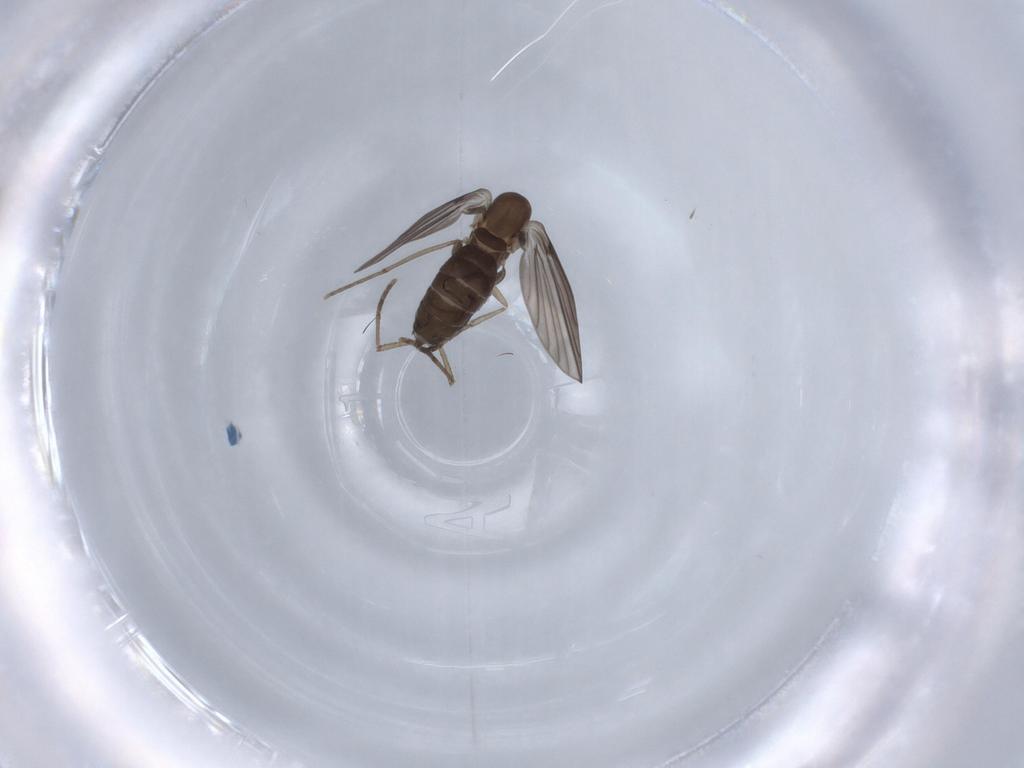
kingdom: Animalia
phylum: Arthropoda
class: Insecta
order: Diptera
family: Psychodidae
